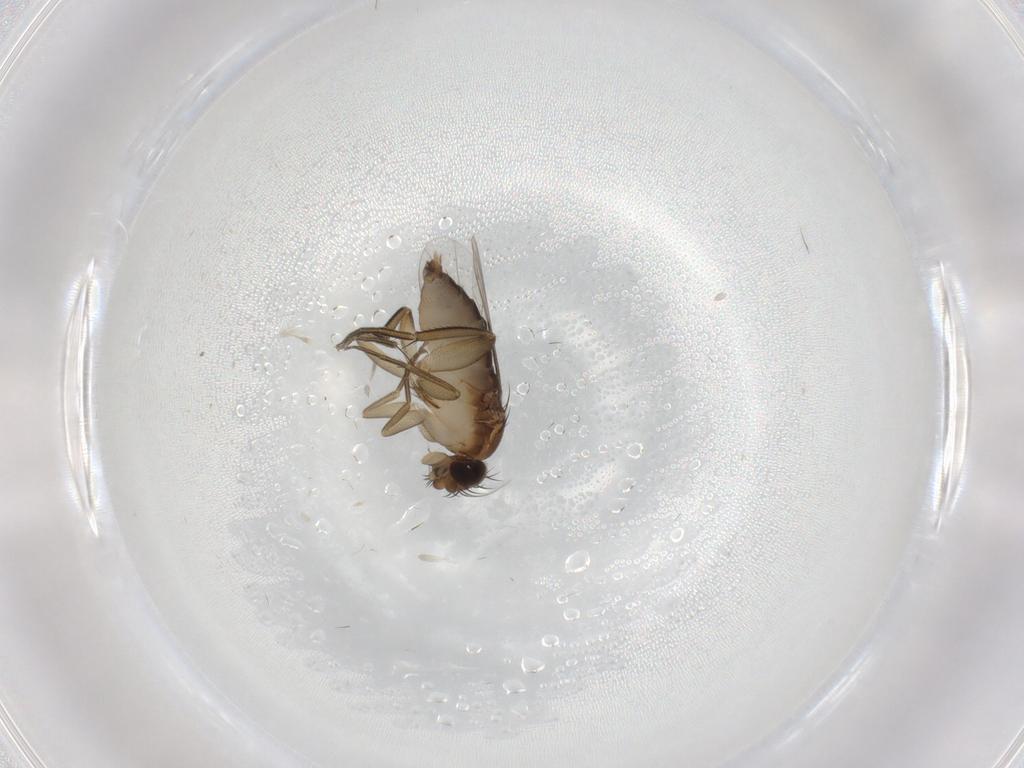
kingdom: Animalia
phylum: Arthropoda
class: Insecta
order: Diptera
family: Phoridae
